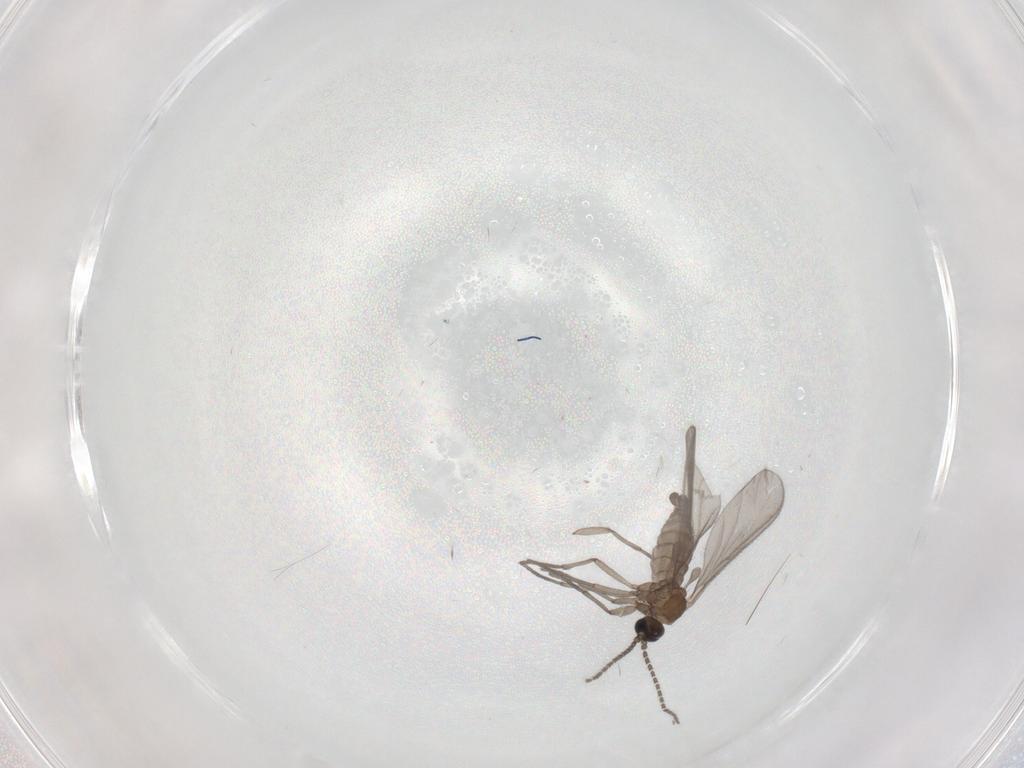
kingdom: Animalia
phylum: Arthropoda
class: Insecta
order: Diptera
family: Sciaridae
